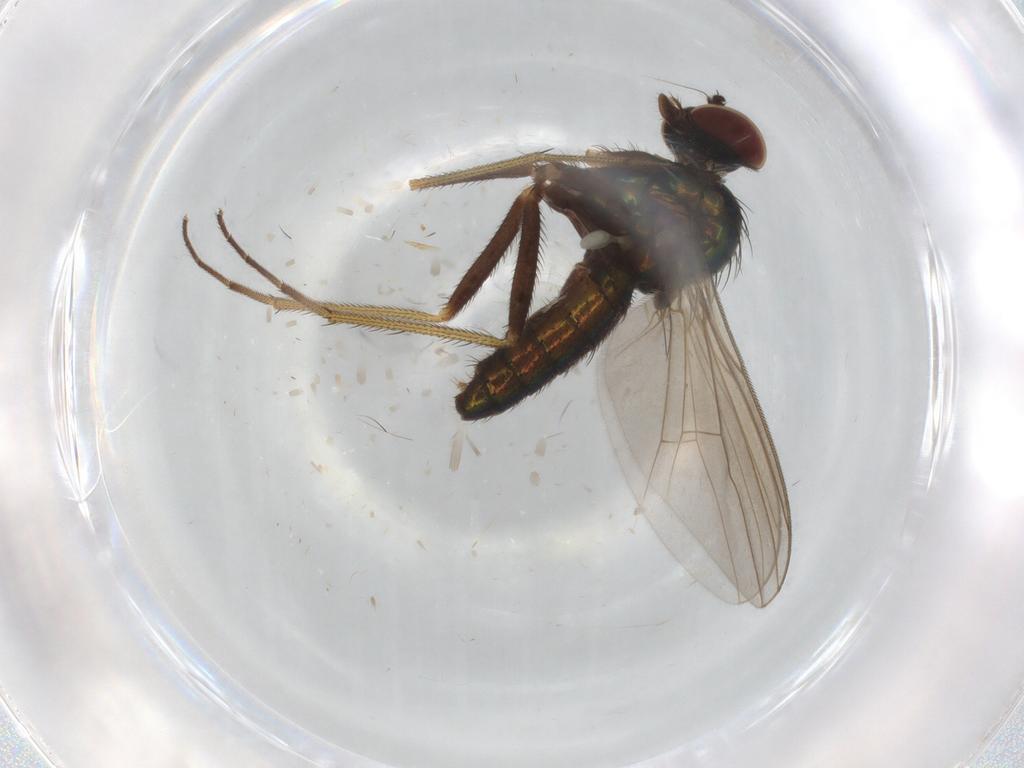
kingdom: Animalia
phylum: Arthropoda
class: Insecta
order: Diptera
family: Dolichopodidae
